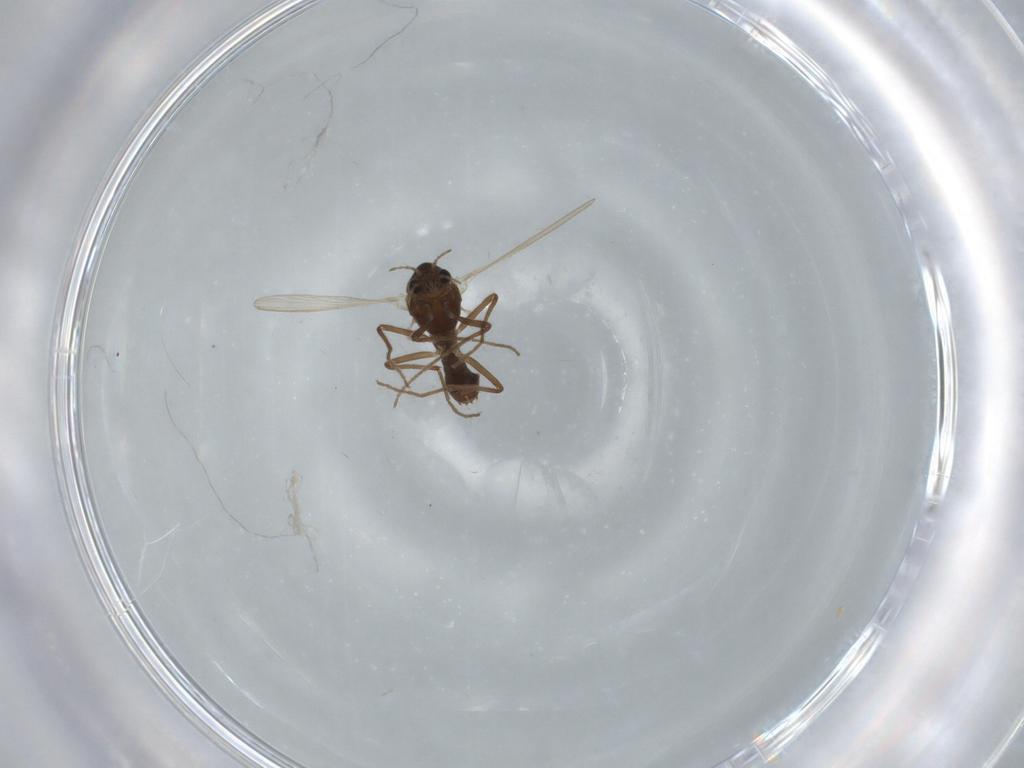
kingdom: Animalia
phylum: Arthropoda
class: Insecta
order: Diptera
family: Chironomidae
